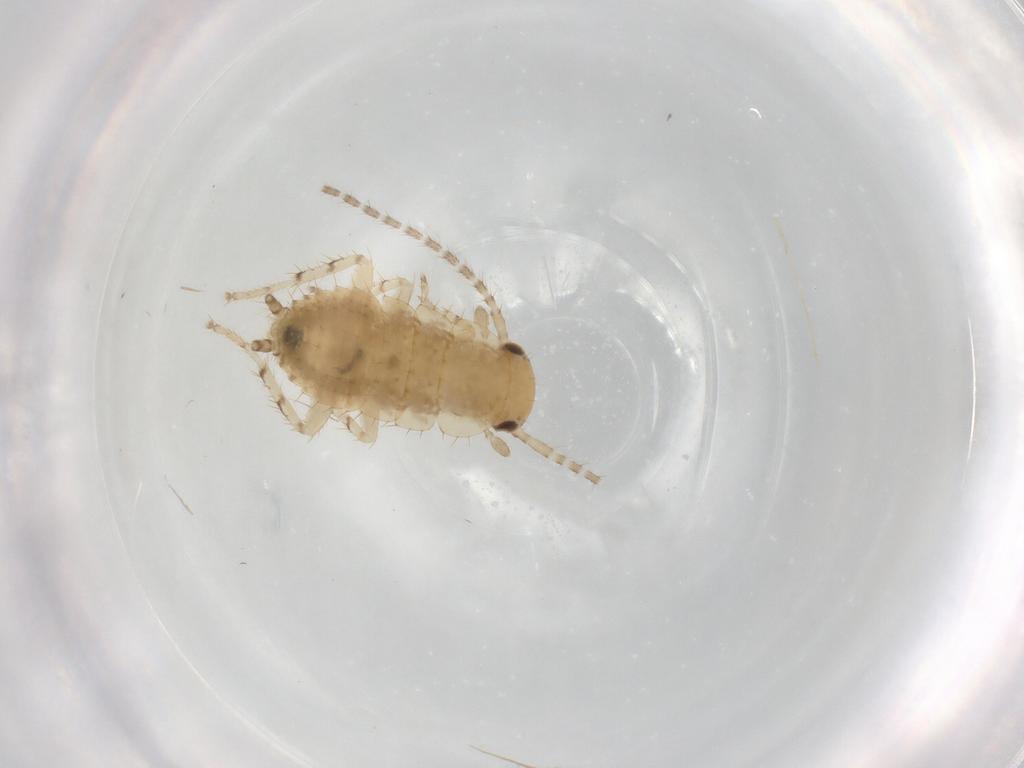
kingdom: Animalia
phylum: Arthropoda
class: Insecta
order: Blattodea
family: Ectobiidae
